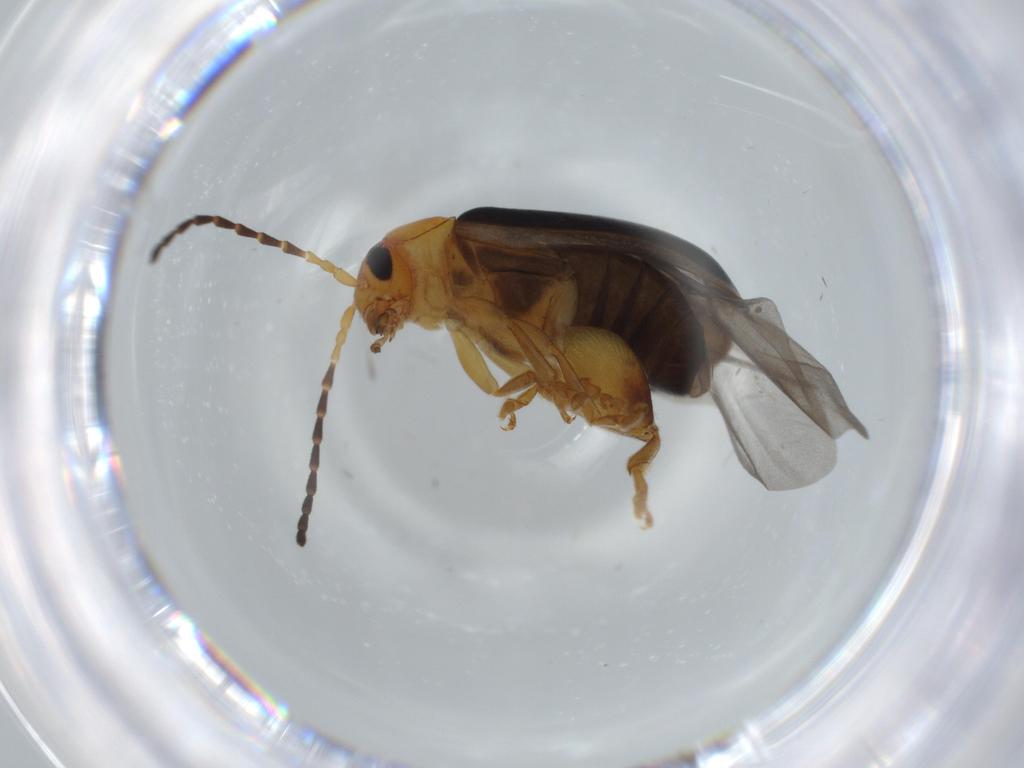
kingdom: Animalia
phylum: Arthropoda
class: Insecta
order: Coleoptera
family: Chrysomelidae
